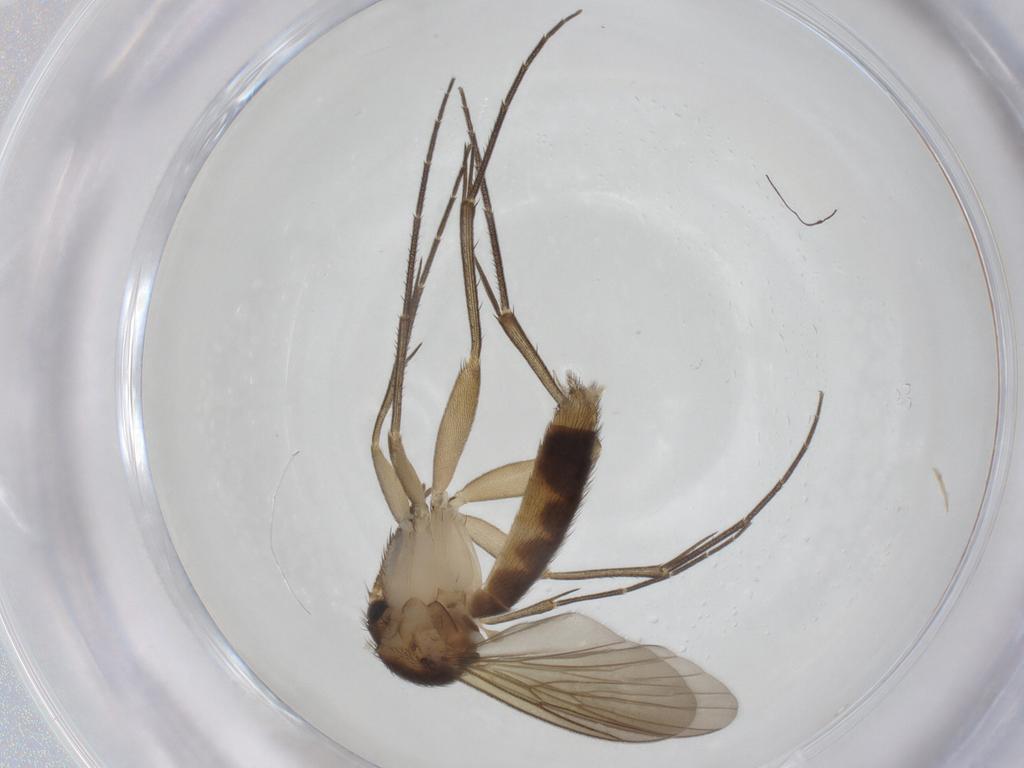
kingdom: Animalia
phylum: Arthropoda
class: Insecta
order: Diptera
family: Mycetophilidae
